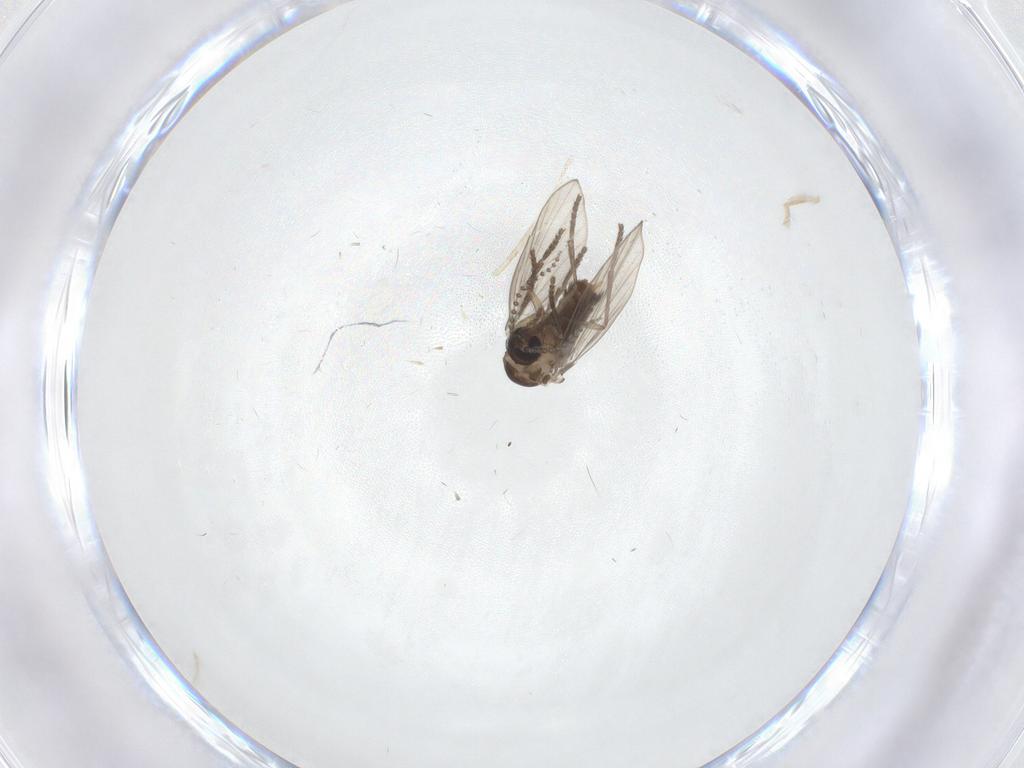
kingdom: Animalia
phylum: Arthropoda
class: Insecta
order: Diptera
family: Psychodidae
